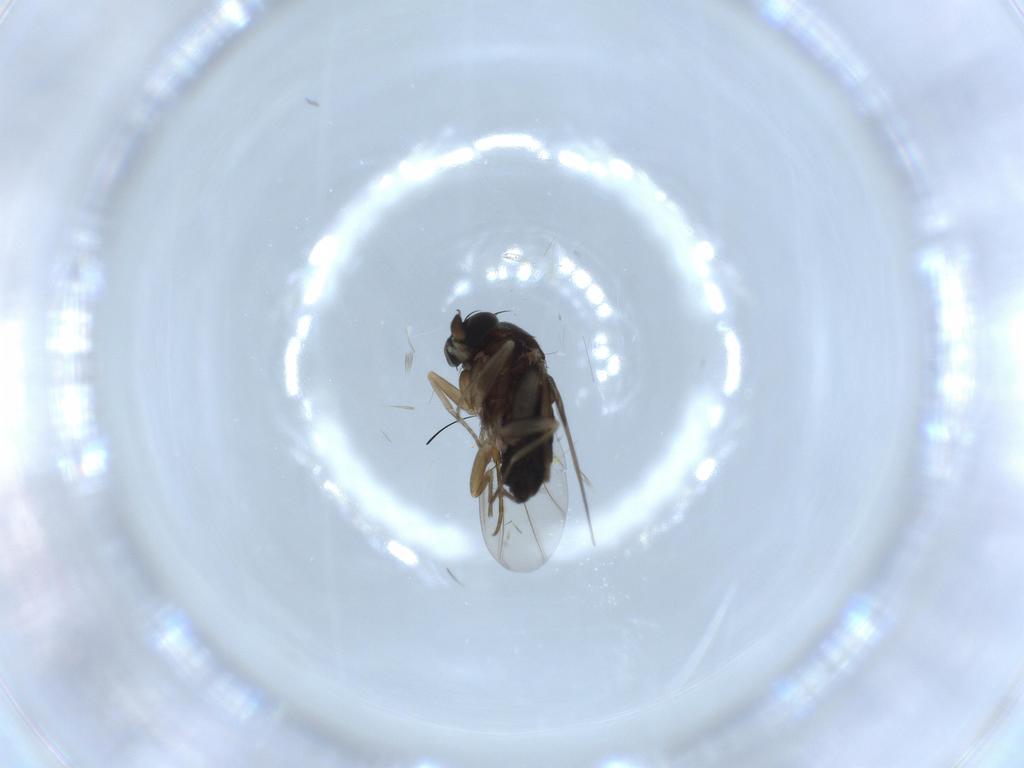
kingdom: Animalia
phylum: Arthropoda
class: Insecta
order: Diptera
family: Phoridae
